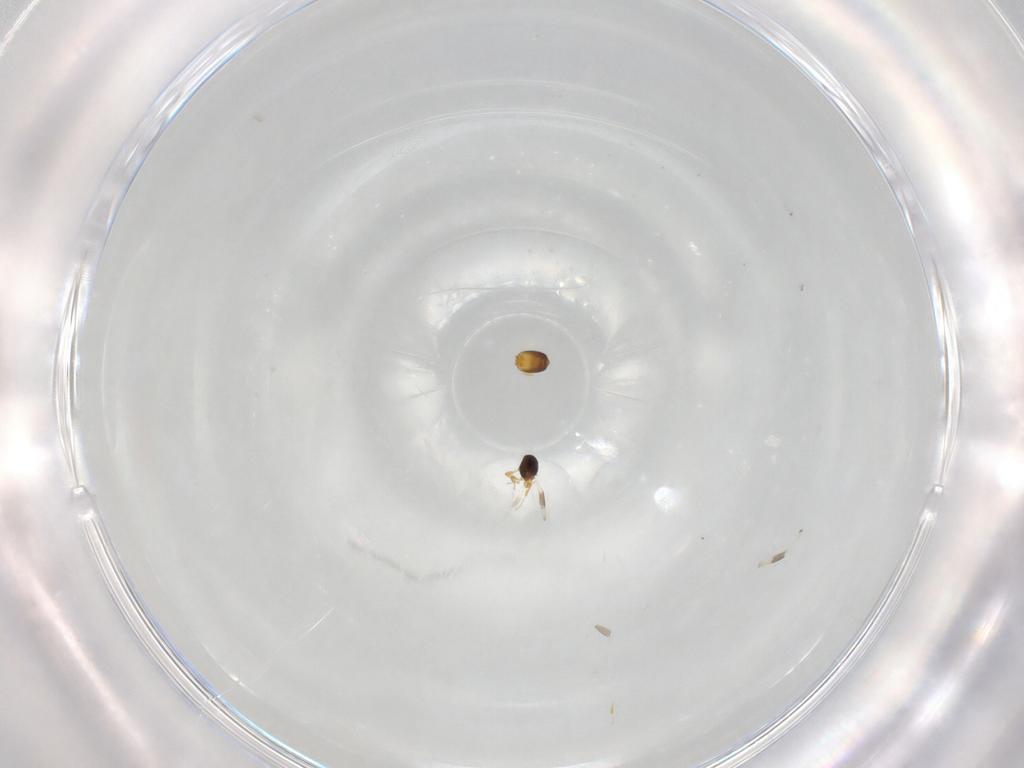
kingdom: Animalia
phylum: Arthropoda
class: Insecta
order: Hymenoptera
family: Platygastridae
